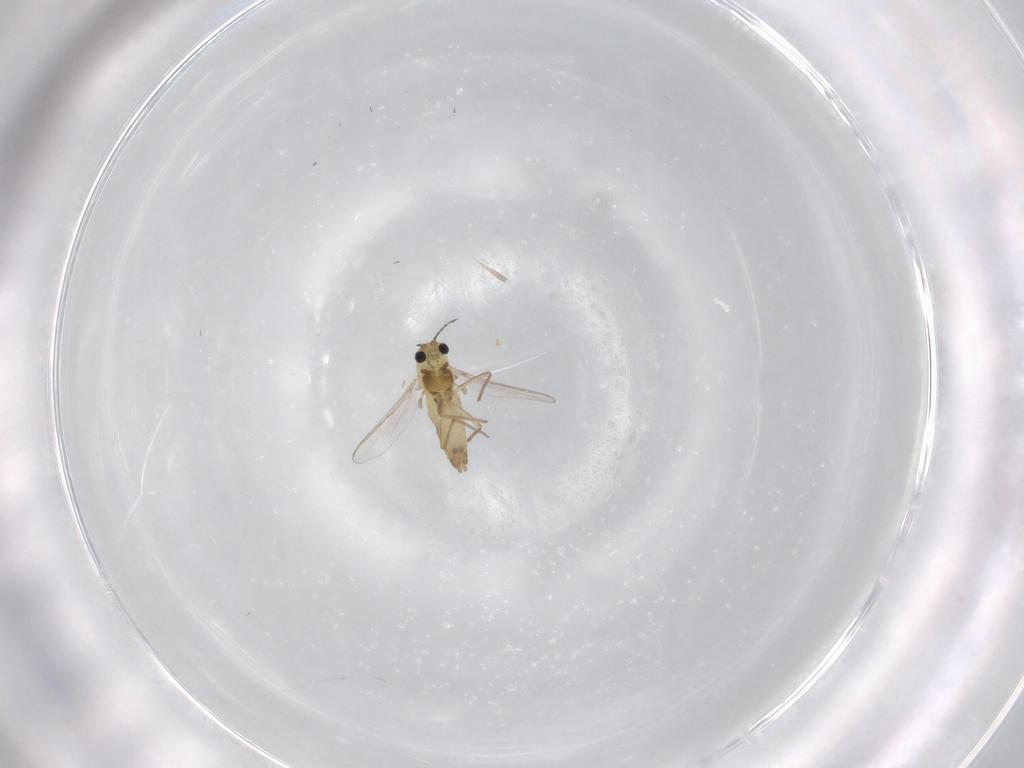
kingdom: Animalia
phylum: Arthropoda
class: Insecta
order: Diptera
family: Chironomidae
